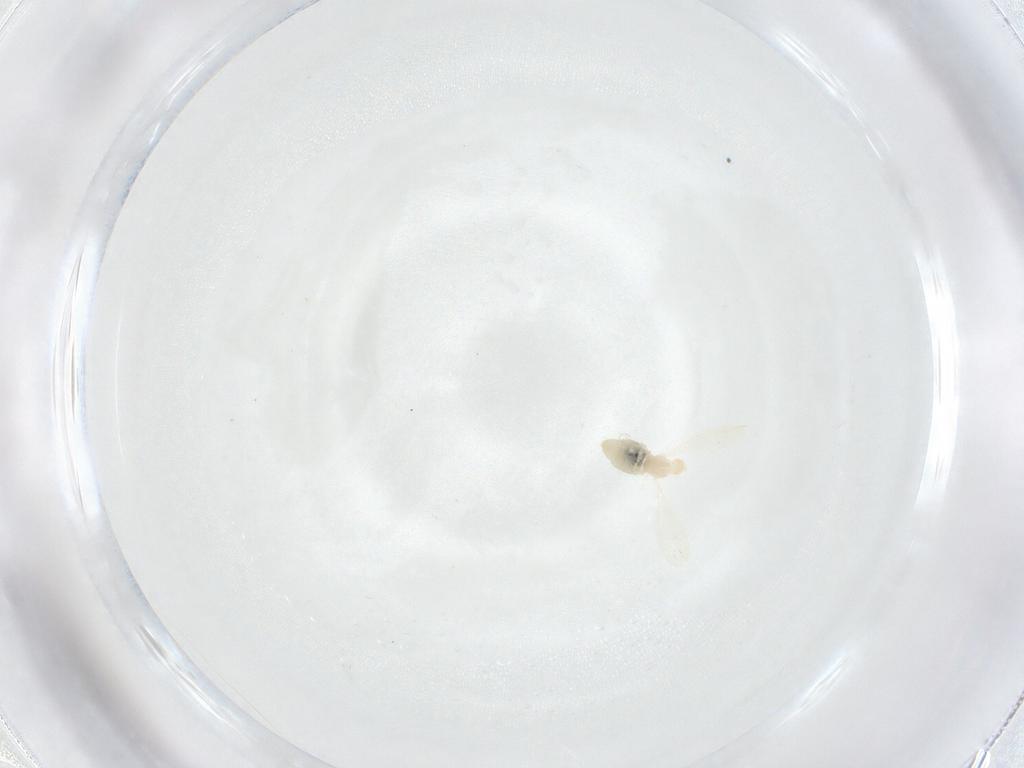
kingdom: Animalia
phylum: Arthropoda
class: Insecta
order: Diptera
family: Cecidomyiidae
